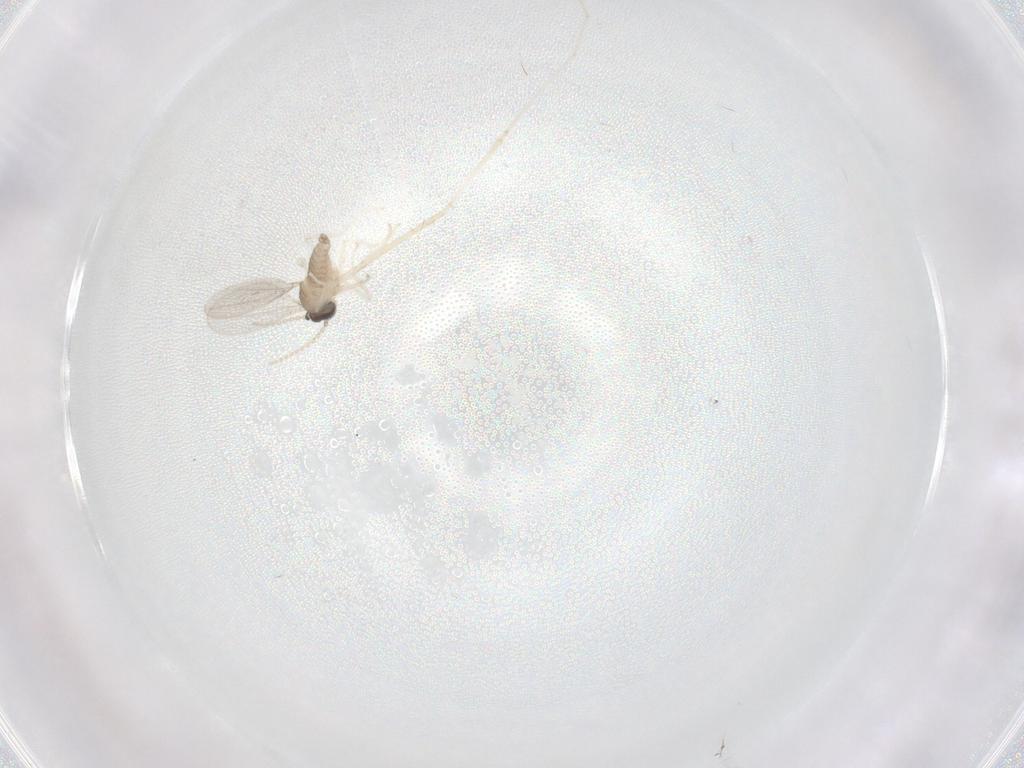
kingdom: Animalia
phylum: Arthropoda
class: Insecta
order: Diptera
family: Cecidomyiidae
